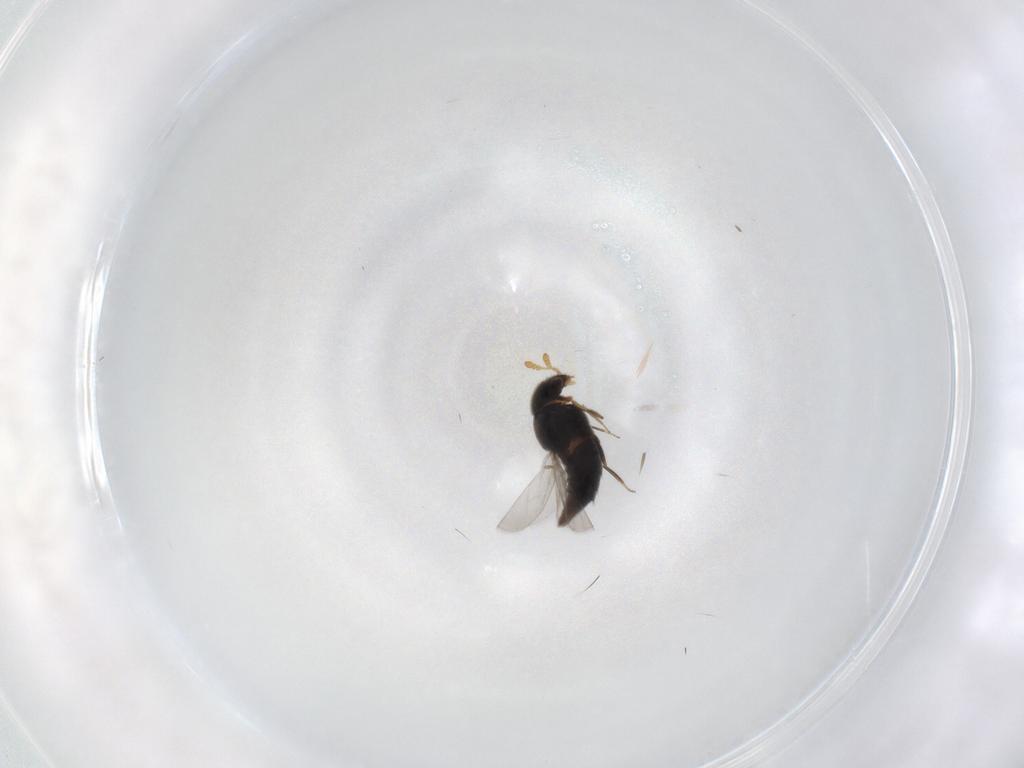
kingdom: Animalia
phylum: Arthropoda
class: Insecta
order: Coleoptera
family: Staphylinidae
